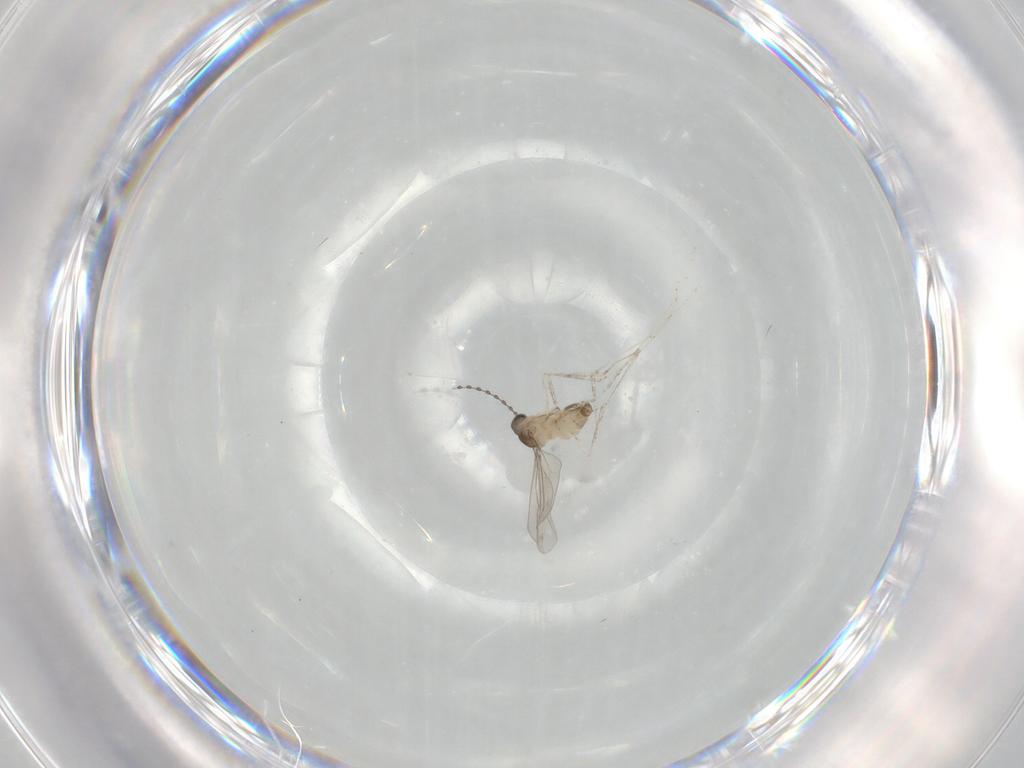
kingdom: Animalia
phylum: Arthropoda
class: Insecta
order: Diptera
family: Cecidomyiidae
